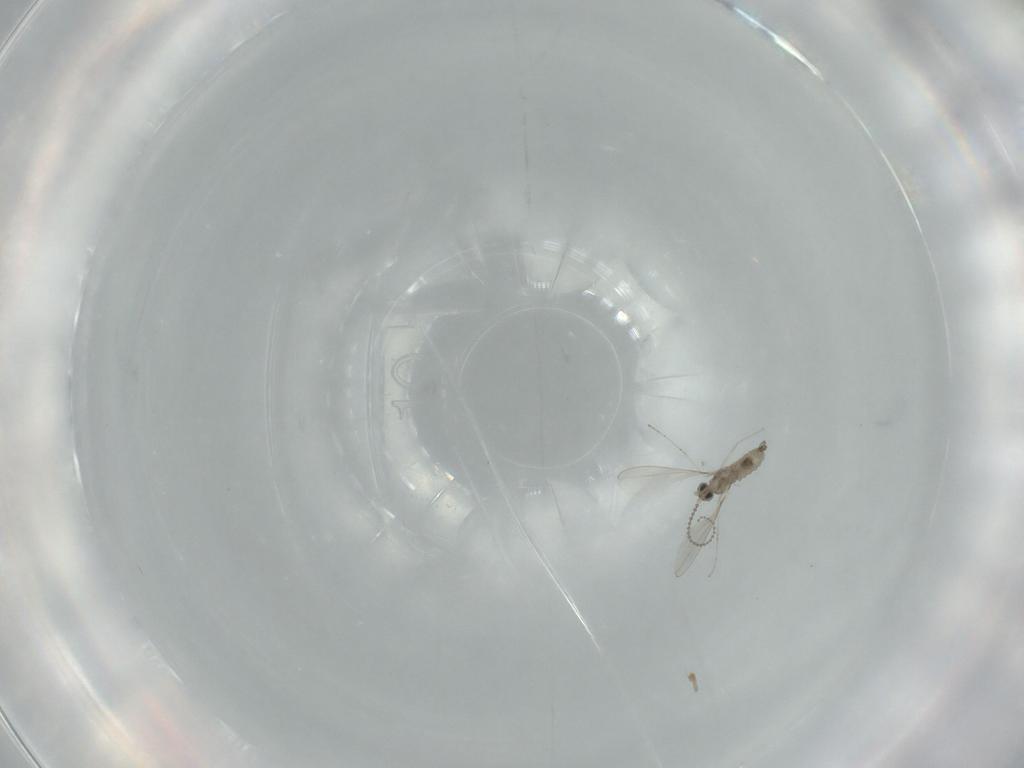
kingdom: Animalia
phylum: Arthropoda
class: Insecta
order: Diptera
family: Cecidomyiidae
